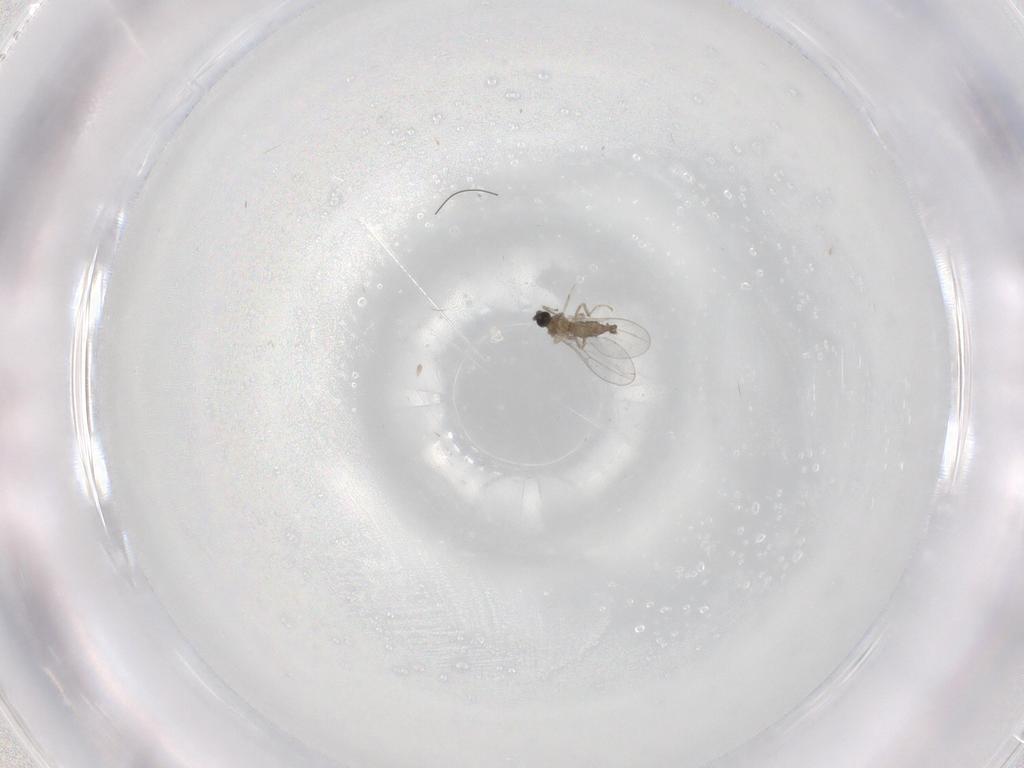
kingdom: Animalia
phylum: Arthropoda
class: Insecta
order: Diptera
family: Cecidomyiidae
